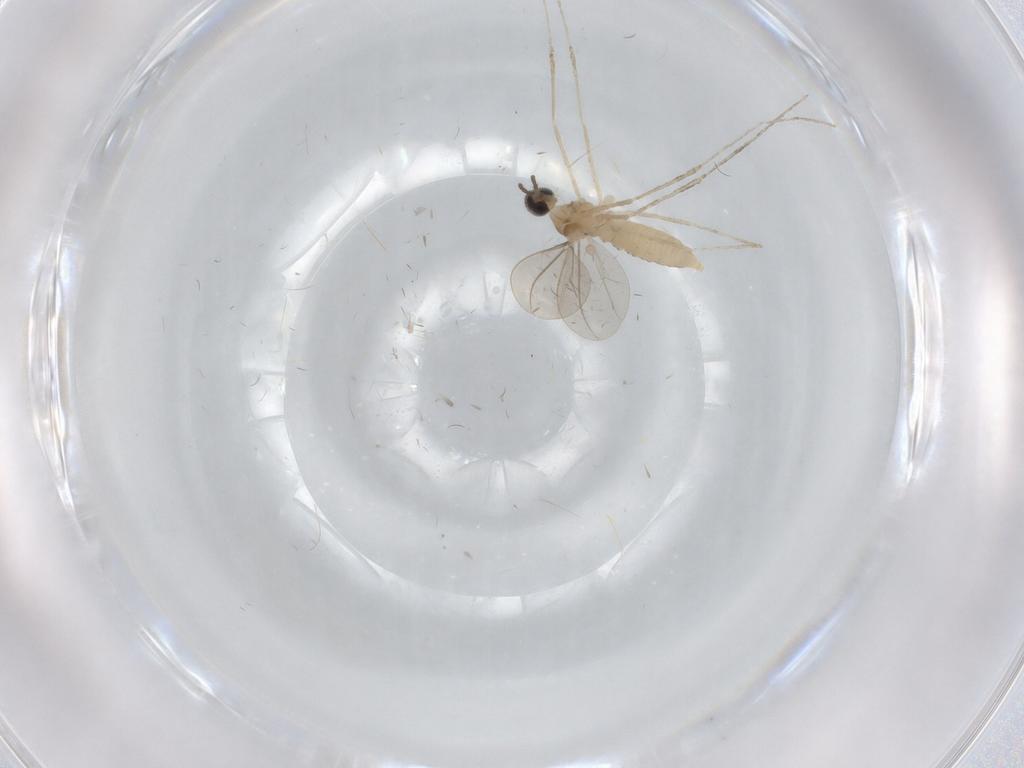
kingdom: Animalia
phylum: Arthropoda
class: Insecta
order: Diptera
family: Cecidomyiidae
